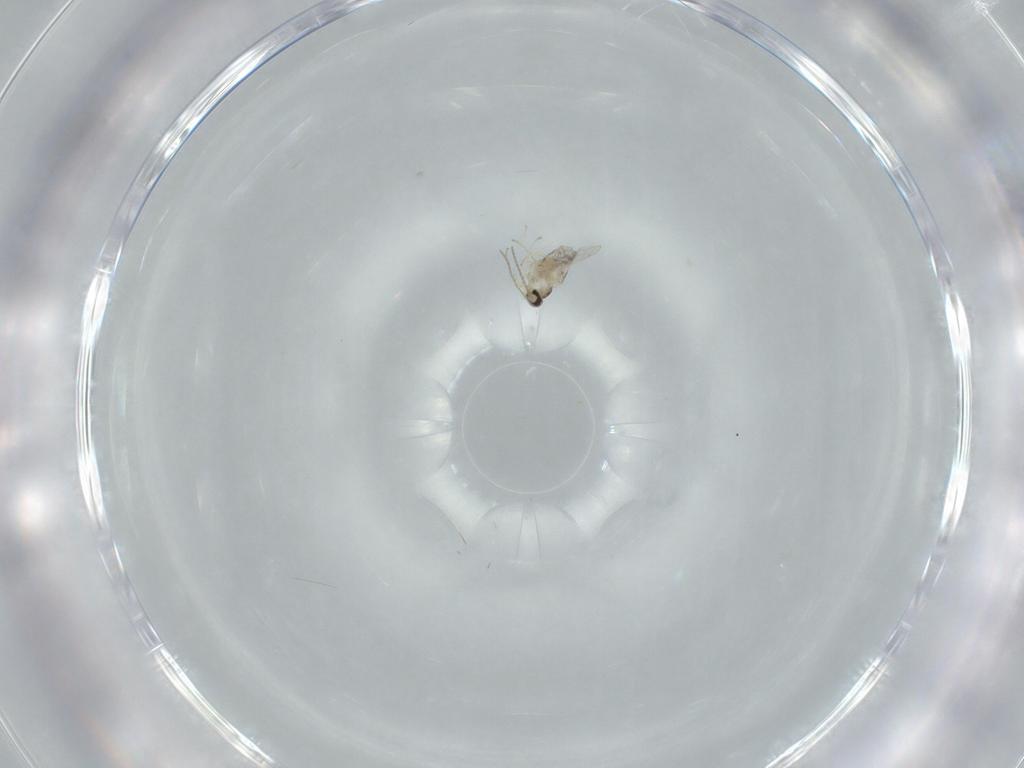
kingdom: Animalia
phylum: Arthropoda
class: Insecta
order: Diptera
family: Cecidomyiidae
